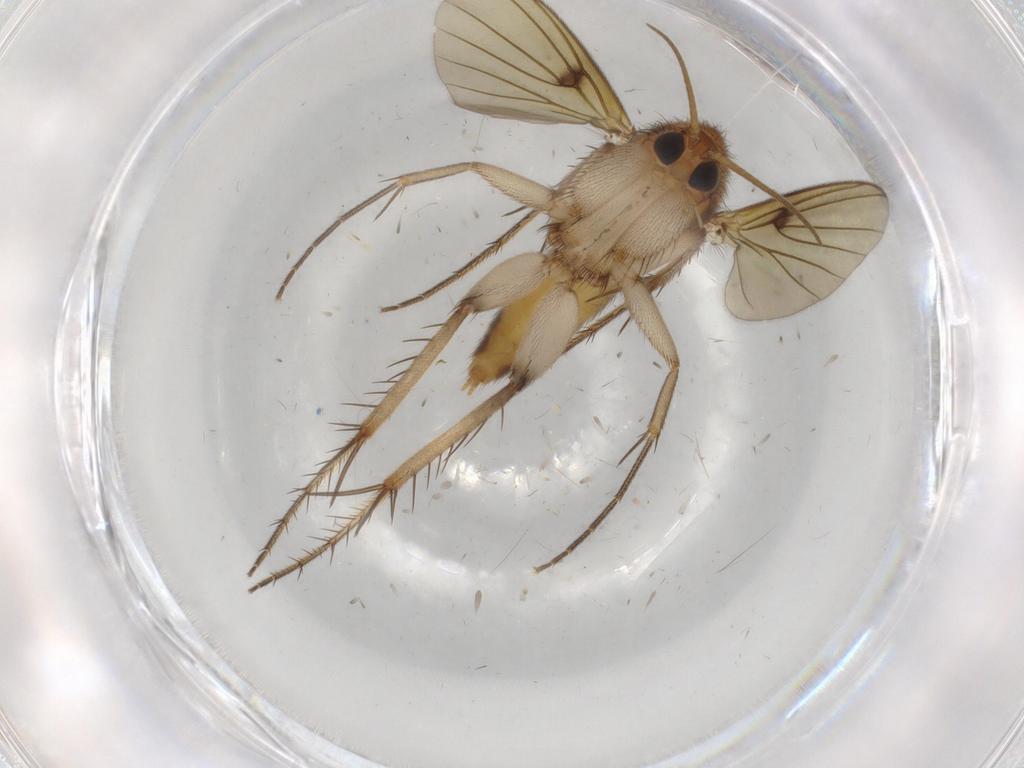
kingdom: Animalia
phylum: Arthropoda
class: Insecta
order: Diptera
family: Mycetophilidae
